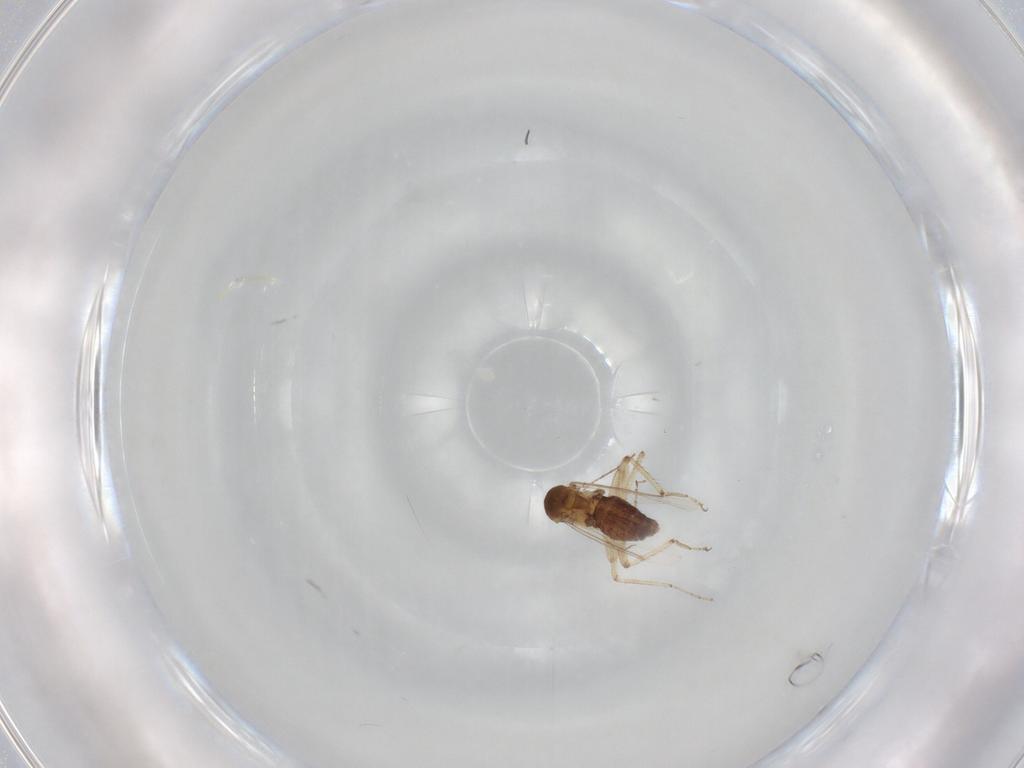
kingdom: Animalia
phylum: Arthropoda
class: Insecta
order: Diptera
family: Ceratopogonidae
